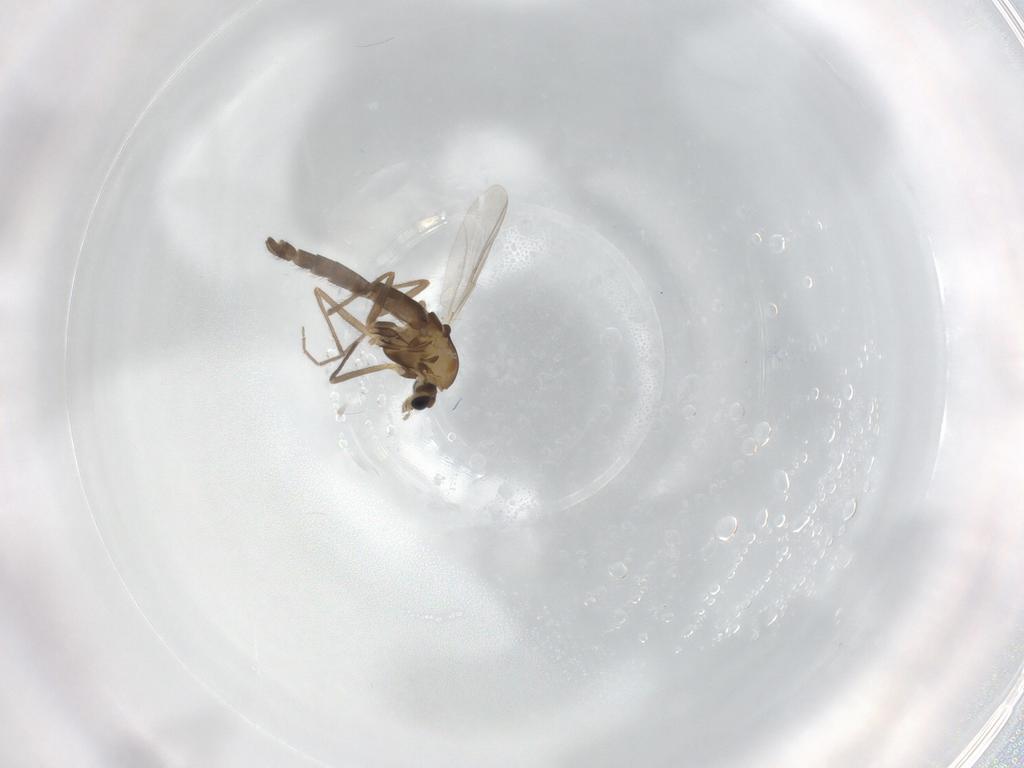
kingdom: Animalia
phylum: Arthropoda
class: Insecta
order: Diptera
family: Chironomidae
